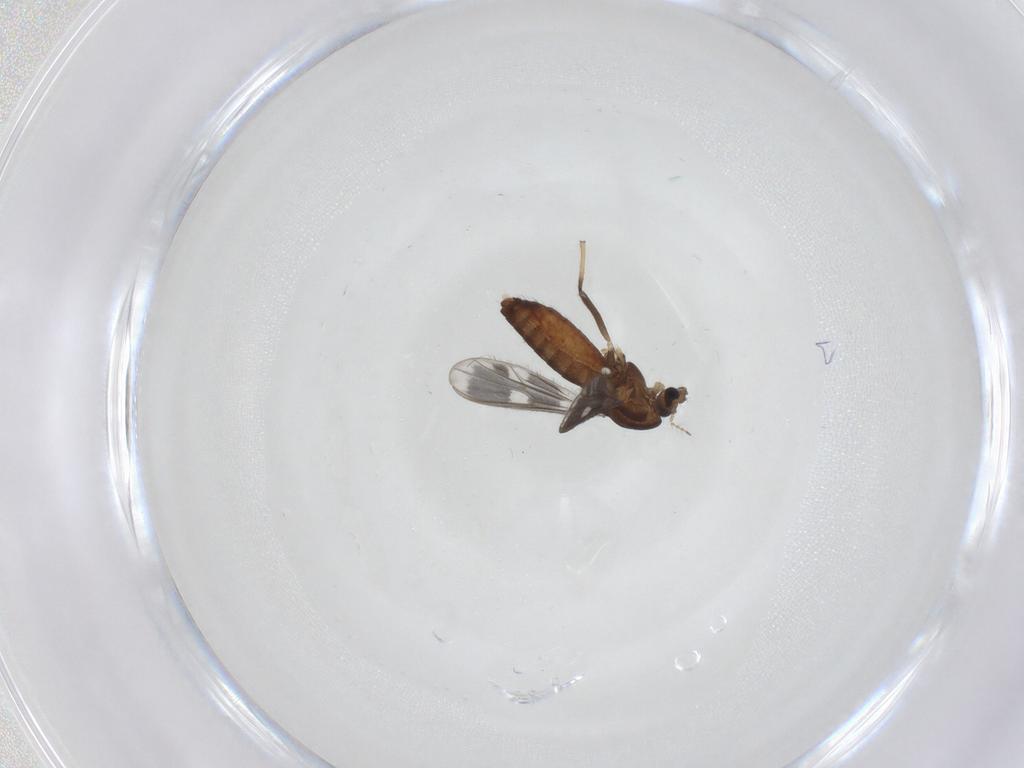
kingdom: Animalia
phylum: Arthropoda
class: Insecta
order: Diptera
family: Chironomidae
